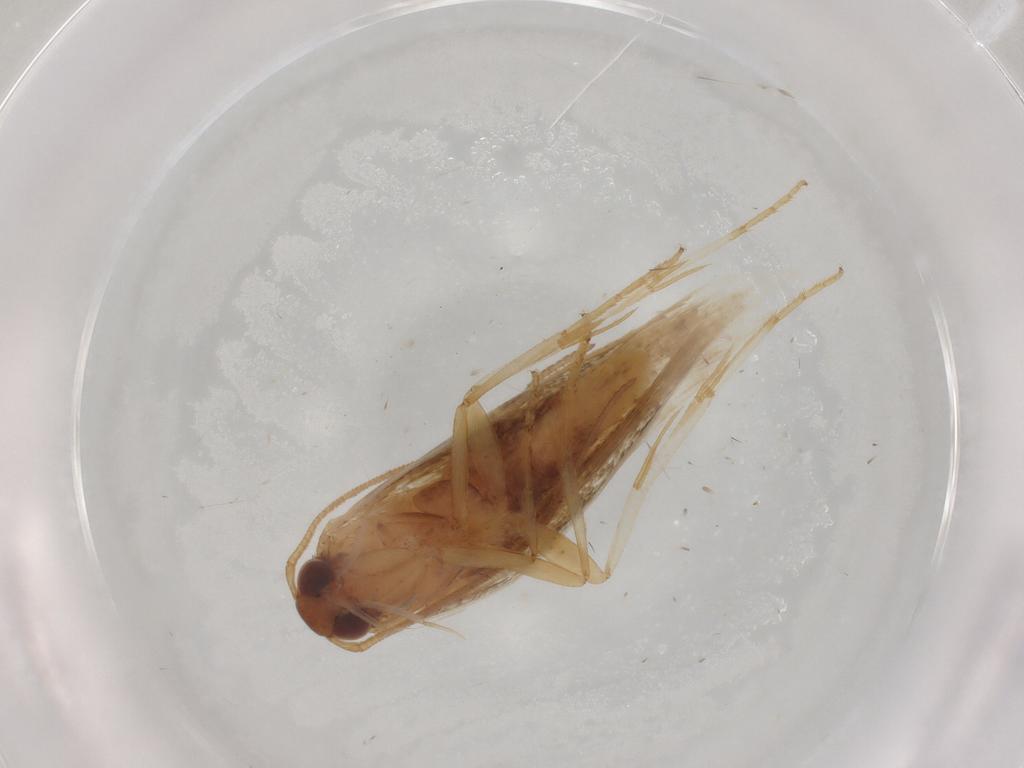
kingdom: Animalia
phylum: Arthropoda
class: Insecta
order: Lepidoptera
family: Gelechiidae
